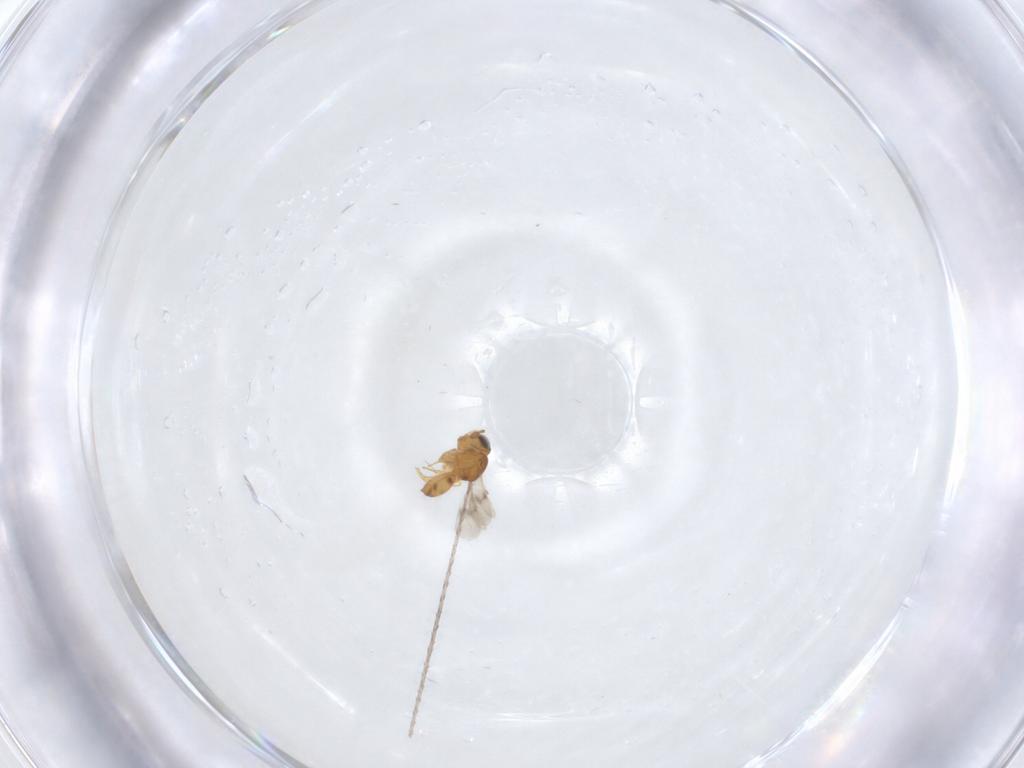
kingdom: Animalia
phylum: Arthropoda
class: Insecta
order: Hymenoptera
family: Scelionidae
